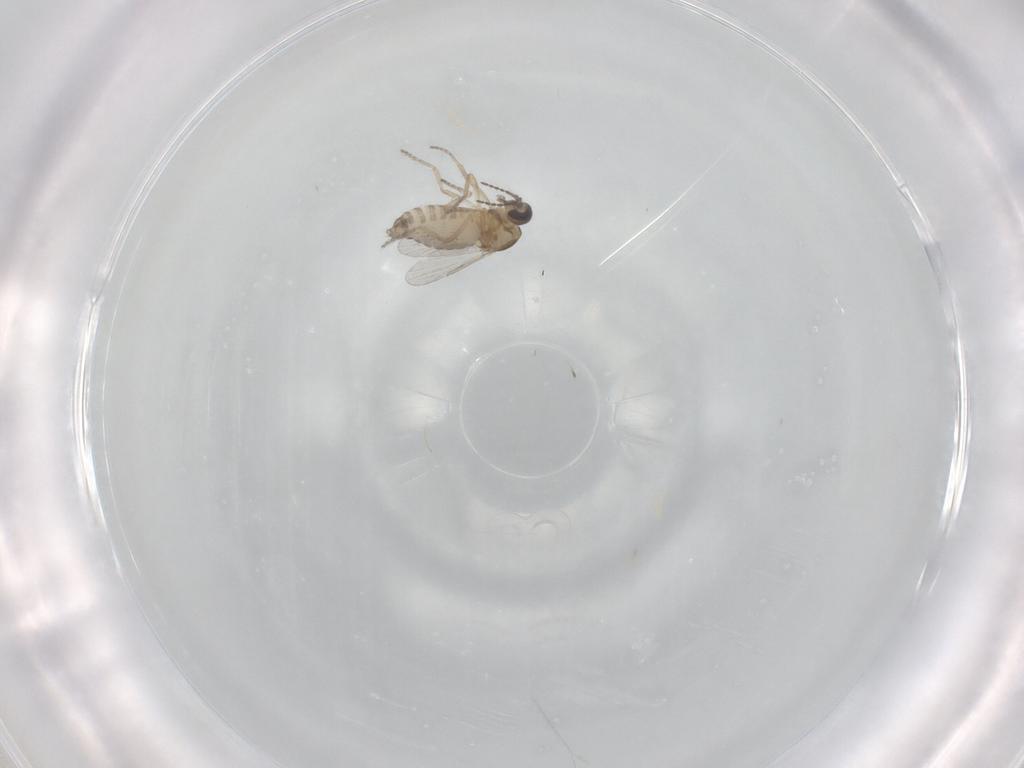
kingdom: Animalia
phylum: Arthropoda
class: Insecta
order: Diptera
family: Ceratopogonidae
